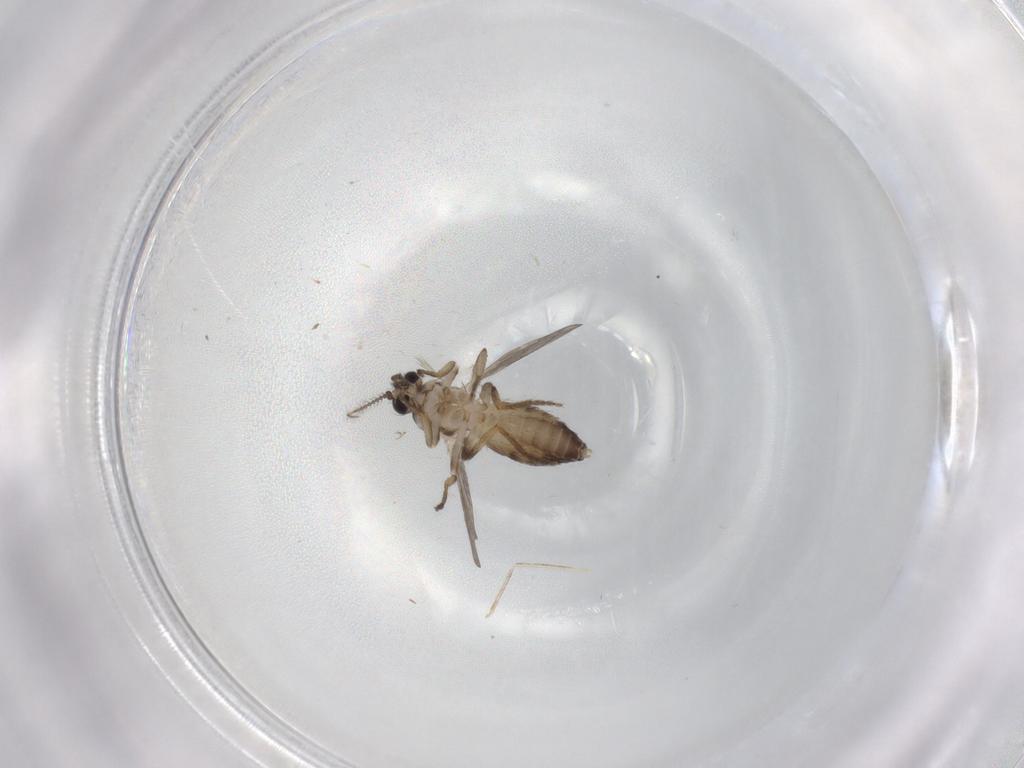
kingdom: Animalia
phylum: Arthropoda
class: Insecta
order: Diptera
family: Cecidomyiidae
